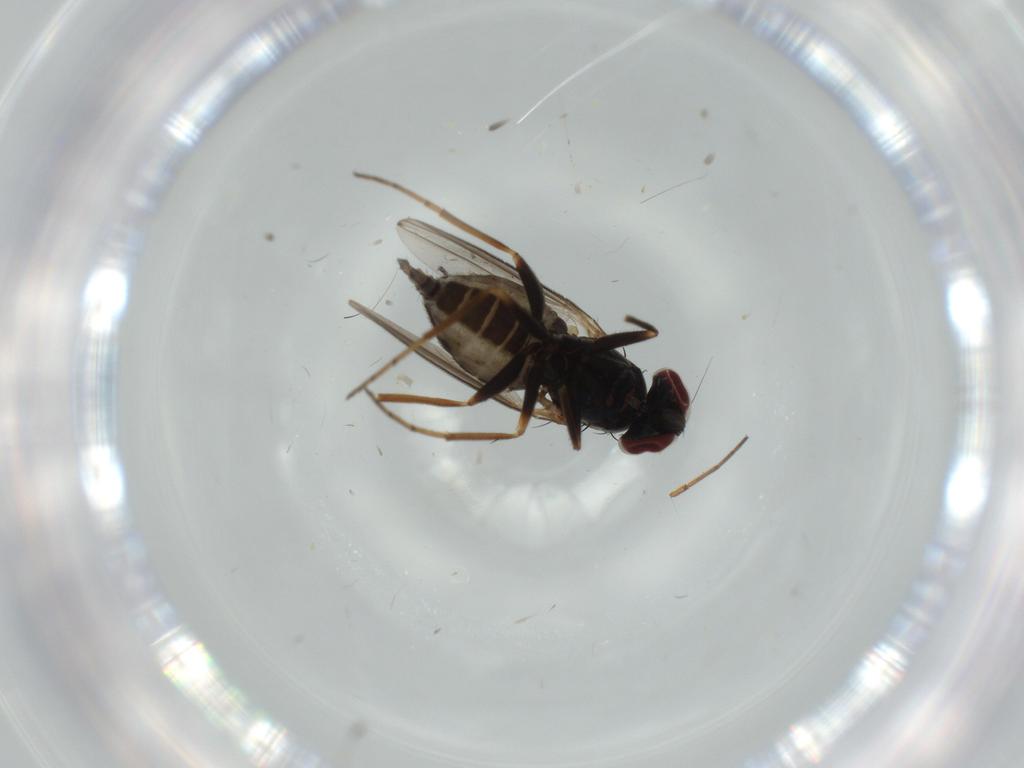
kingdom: Animalia
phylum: Arthropoda
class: Insecta
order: Diptera
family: Dolichopodidae
